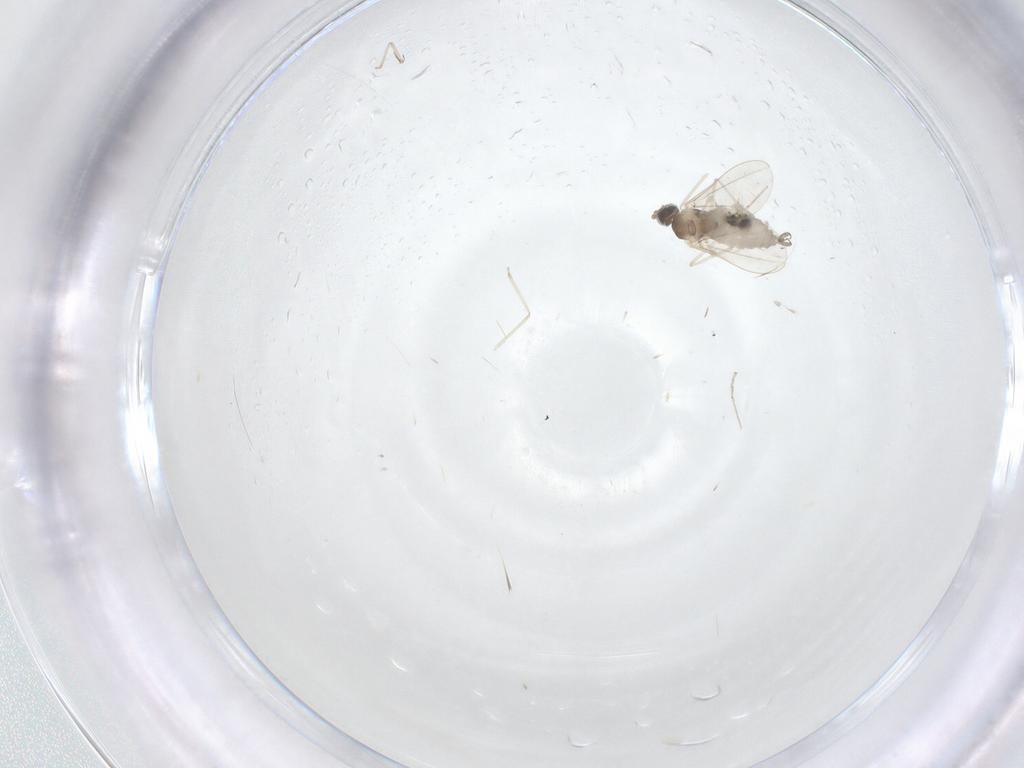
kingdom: Animalia
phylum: Arthropoda
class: Insecta
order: Diptera
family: Cecidomyiidae
